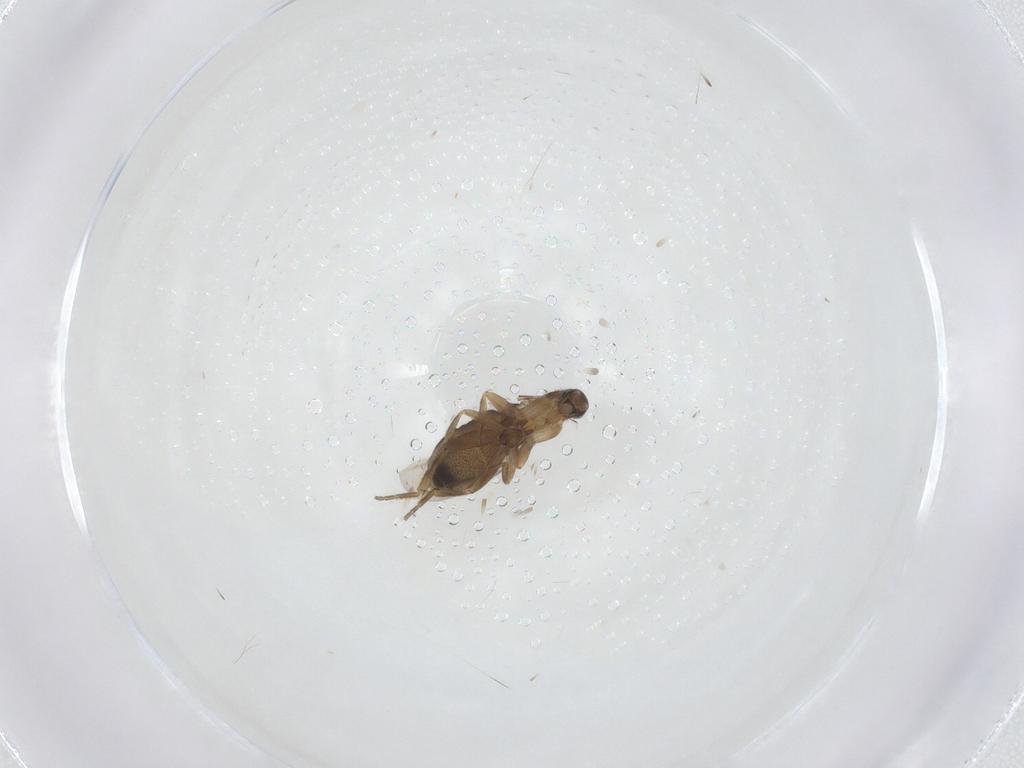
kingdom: Animalia
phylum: Arthropoda
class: Insecta
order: Diptera
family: Phoridae
